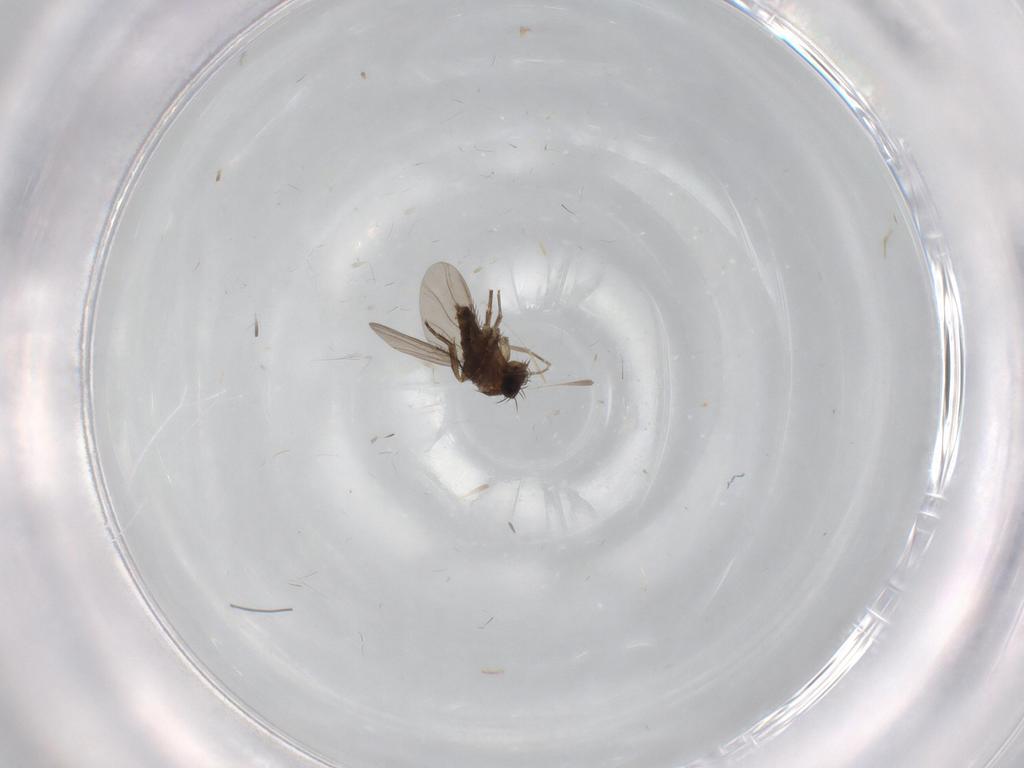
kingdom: Animalia
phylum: Arthropoda
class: Insecta
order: Diptera
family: Phoridae
